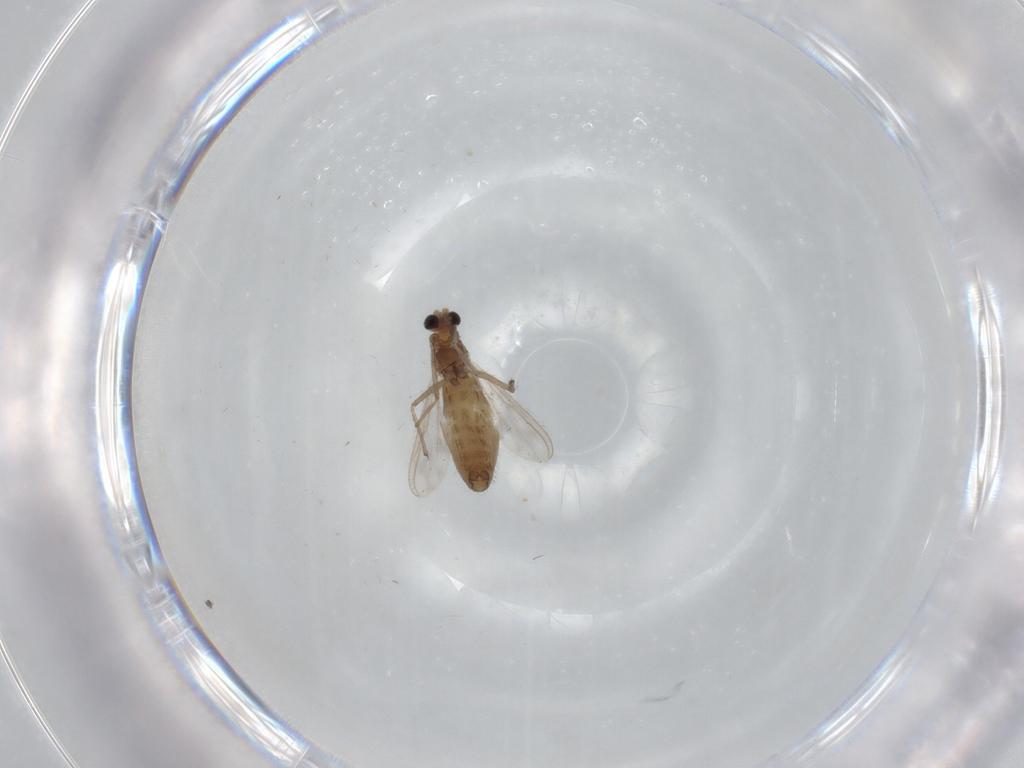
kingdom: Animalia
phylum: Arthropoda
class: Insecta
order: Diptera
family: Chironomidae
